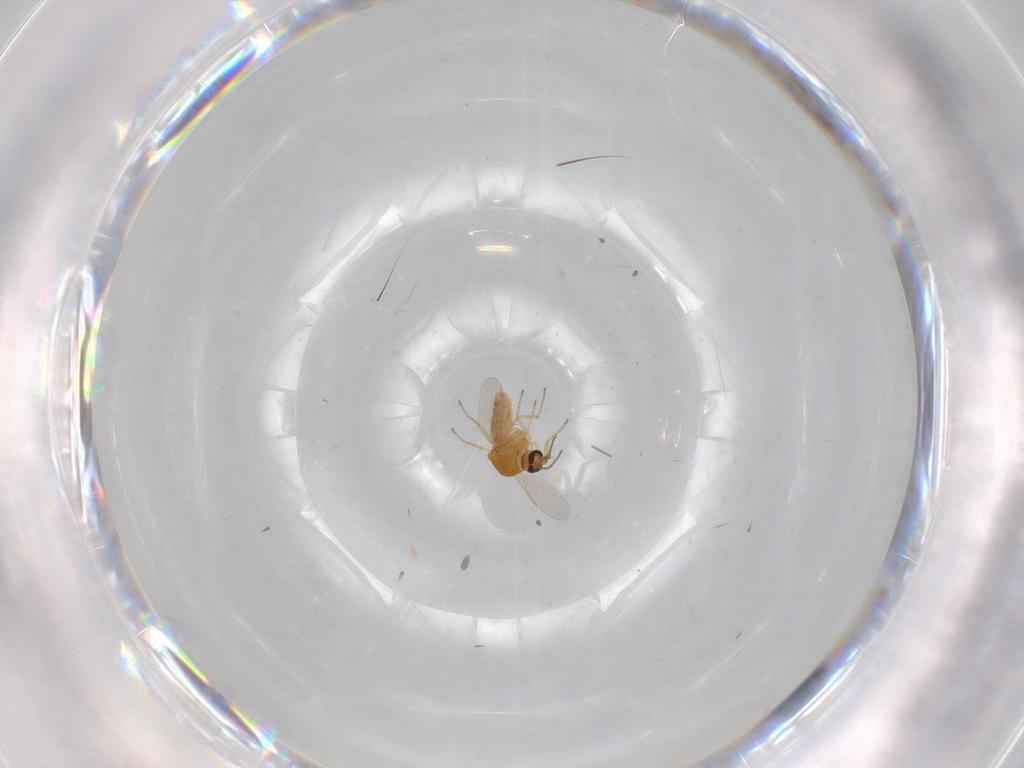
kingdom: Animalia
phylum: Arthropoda
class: Insecta
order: Diptera
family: Ceratopogonidae
